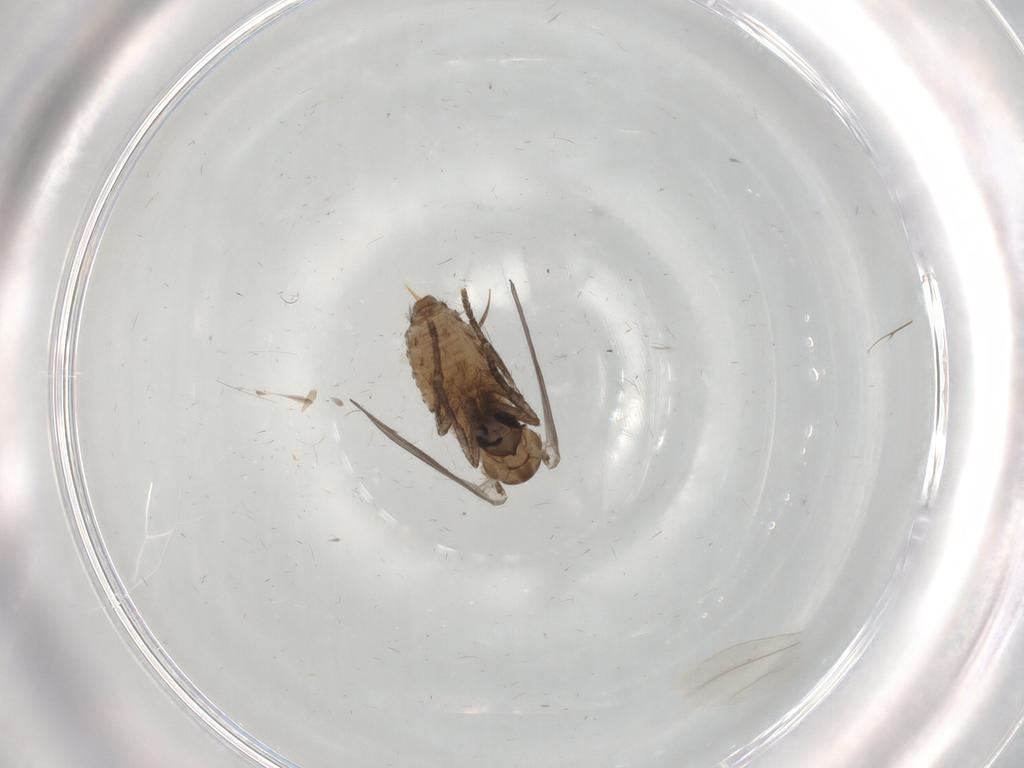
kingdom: Animalia
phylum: Arthropoda
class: Insecta
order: Diptera
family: Psychodidae
